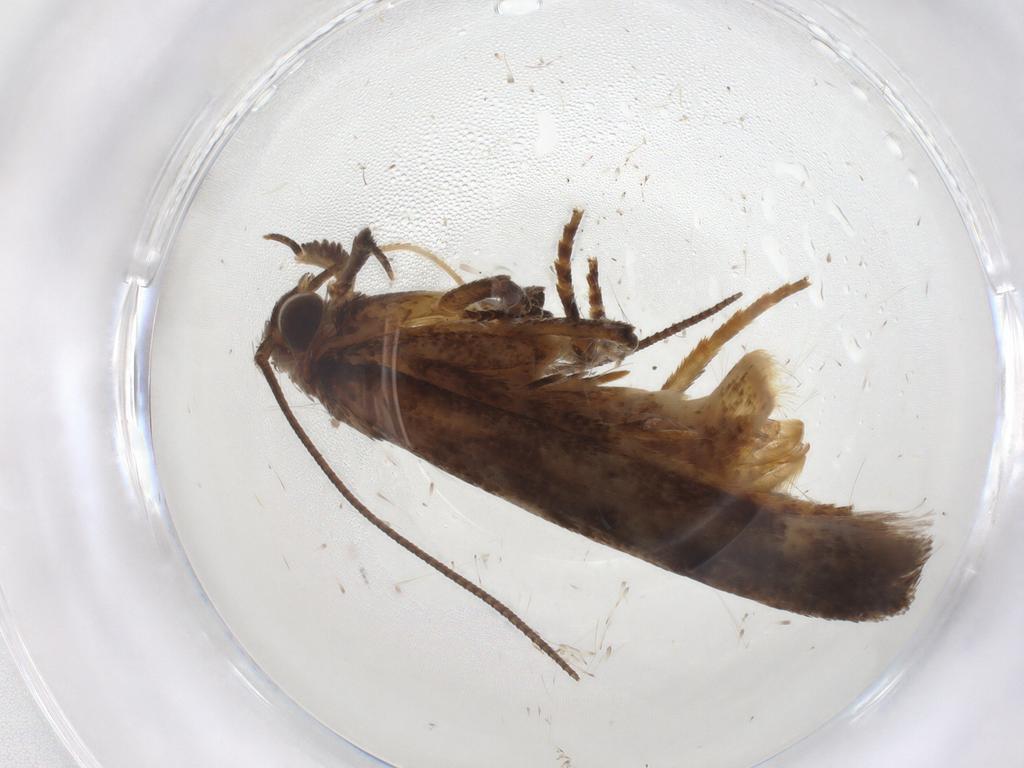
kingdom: Animalia
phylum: Arthropoda
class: Insecta
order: Lepidoptera
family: Gelechiidae
